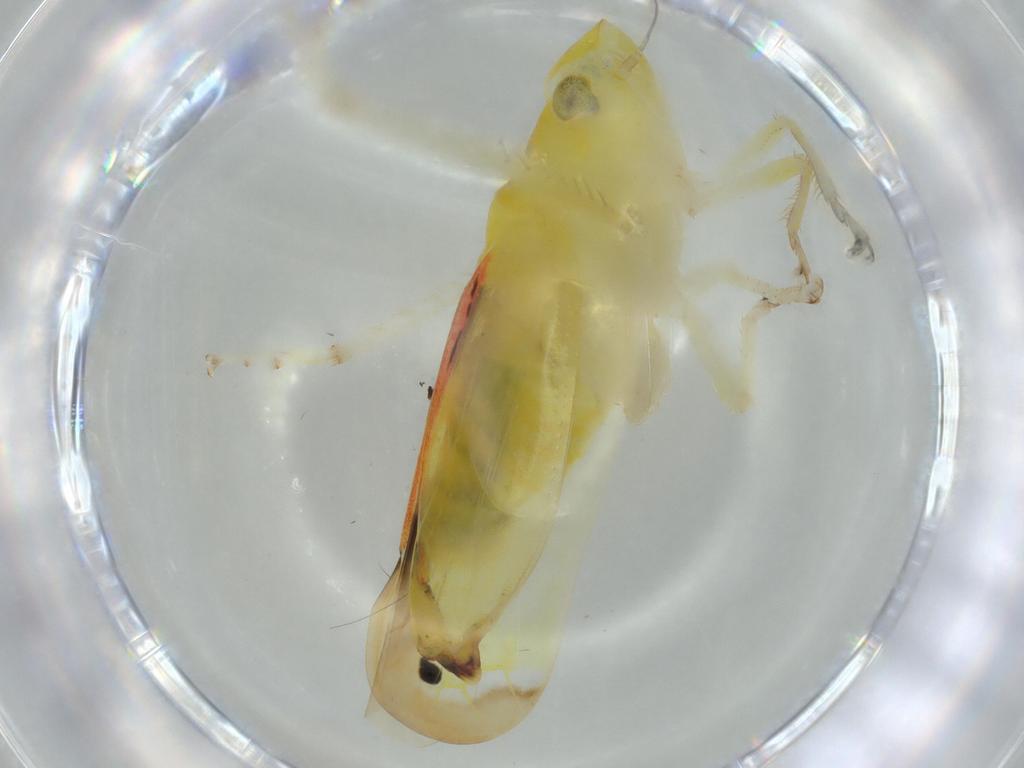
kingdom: Animalia
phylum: Arthropoda
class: Insecta
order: Hemiptera
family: Cicadellidae
